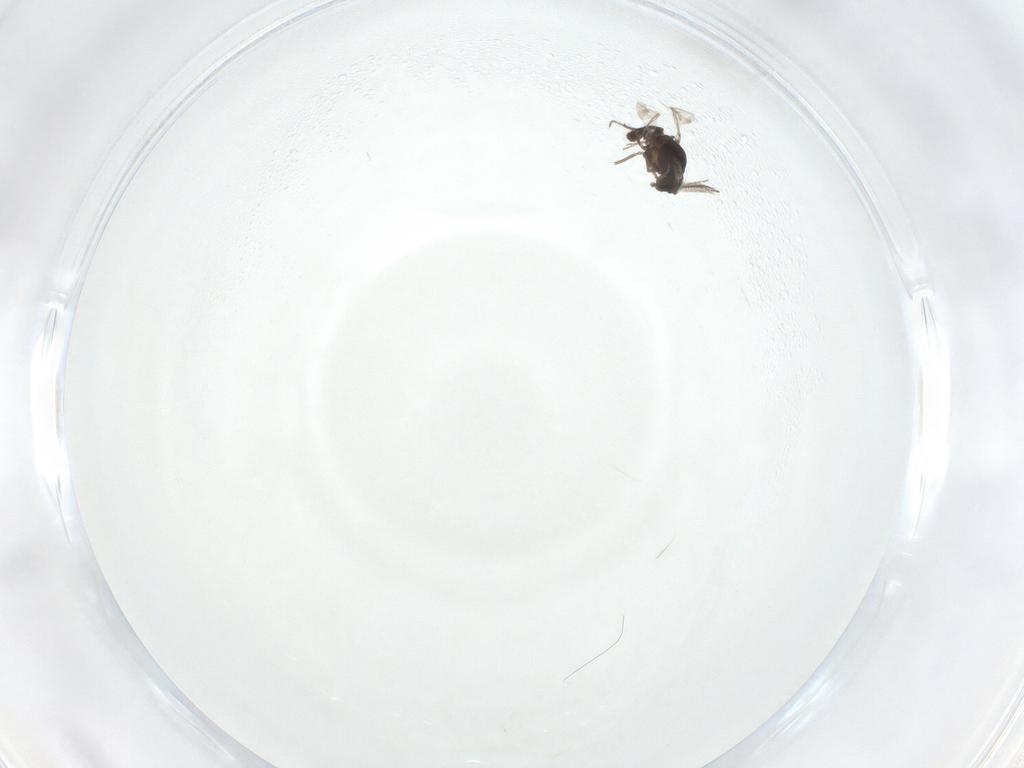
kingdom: Animalia
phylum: Arthropoda
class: Insecta
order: Diptera
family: Ceratopogonidae
